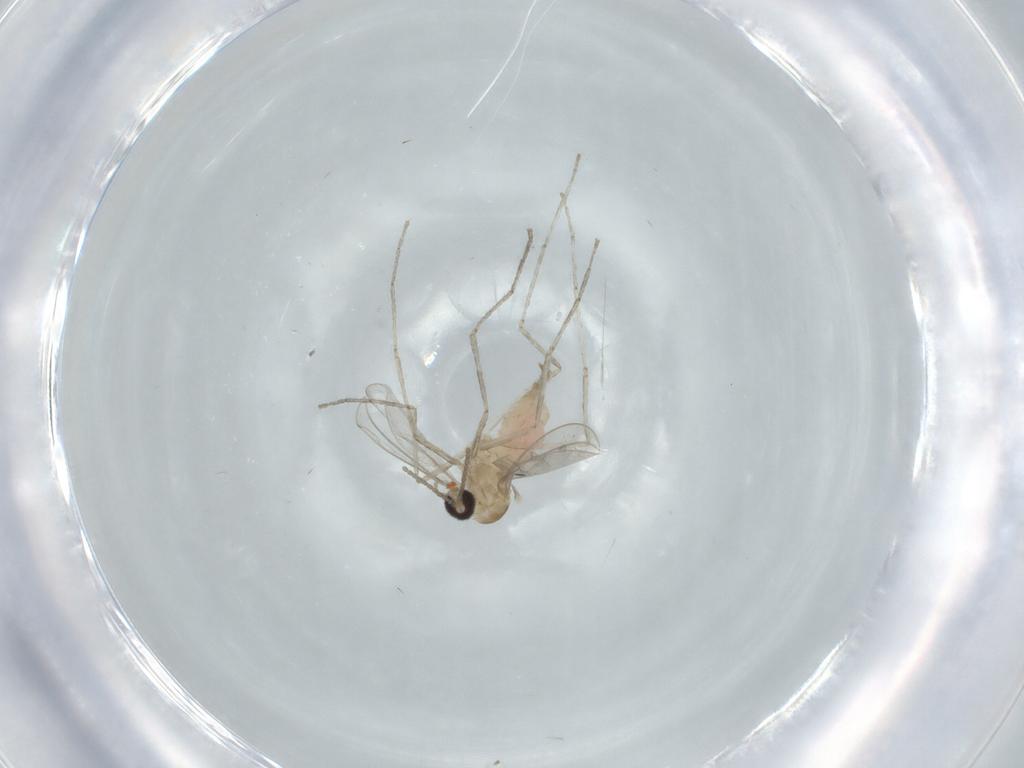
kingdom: Animalia
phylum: Arthropoda
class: Insecta
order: Diptera
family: Cecidomyiidae
